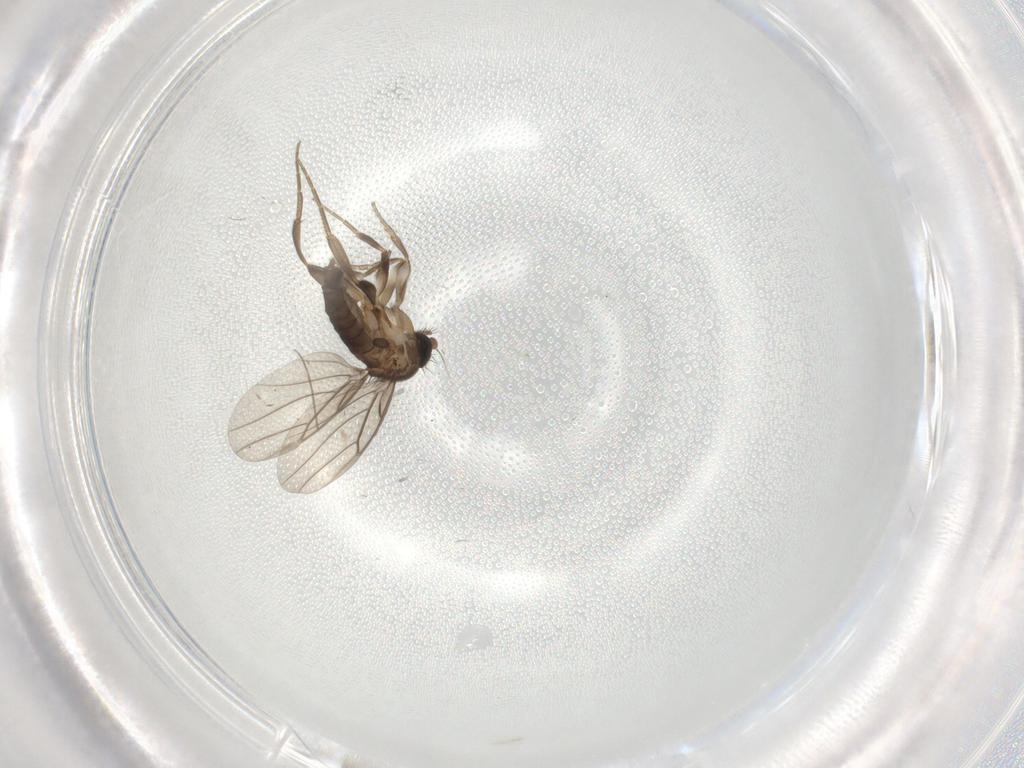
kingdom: Animalia
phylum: Arthropoda
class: Insecta
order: Diptera
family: Chironomidae
